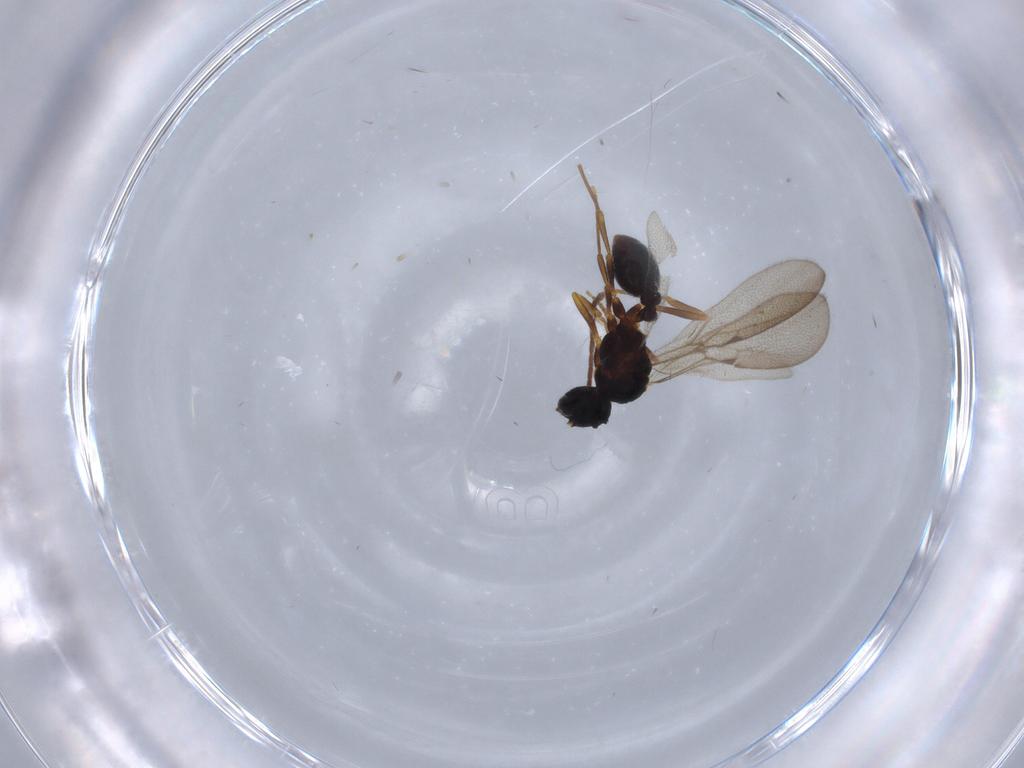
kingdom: Animalia
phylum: Arthropoda
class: Insecta
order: Hymenoptera
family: Formicidae
